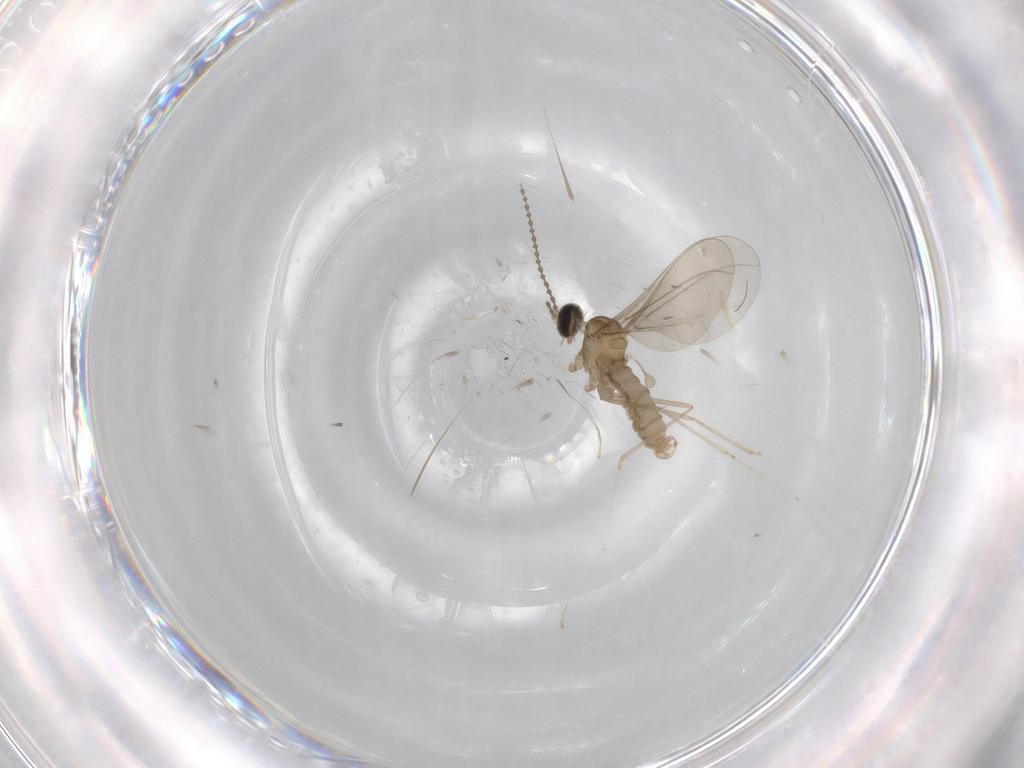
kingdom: Animalia
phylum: Arthropoda
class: Insecta
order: Diptera
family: Cecidomyiidae
